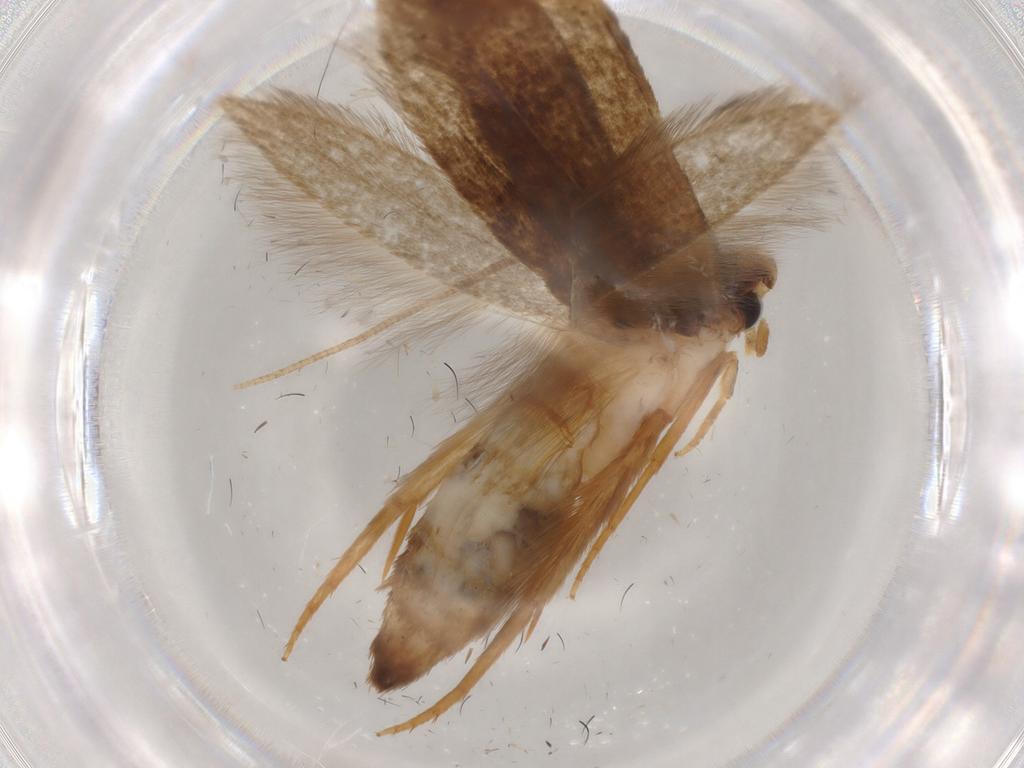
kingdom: Animalia
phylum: Arthropoda
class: Insecta
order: Lepidoptera
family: Tineidae
